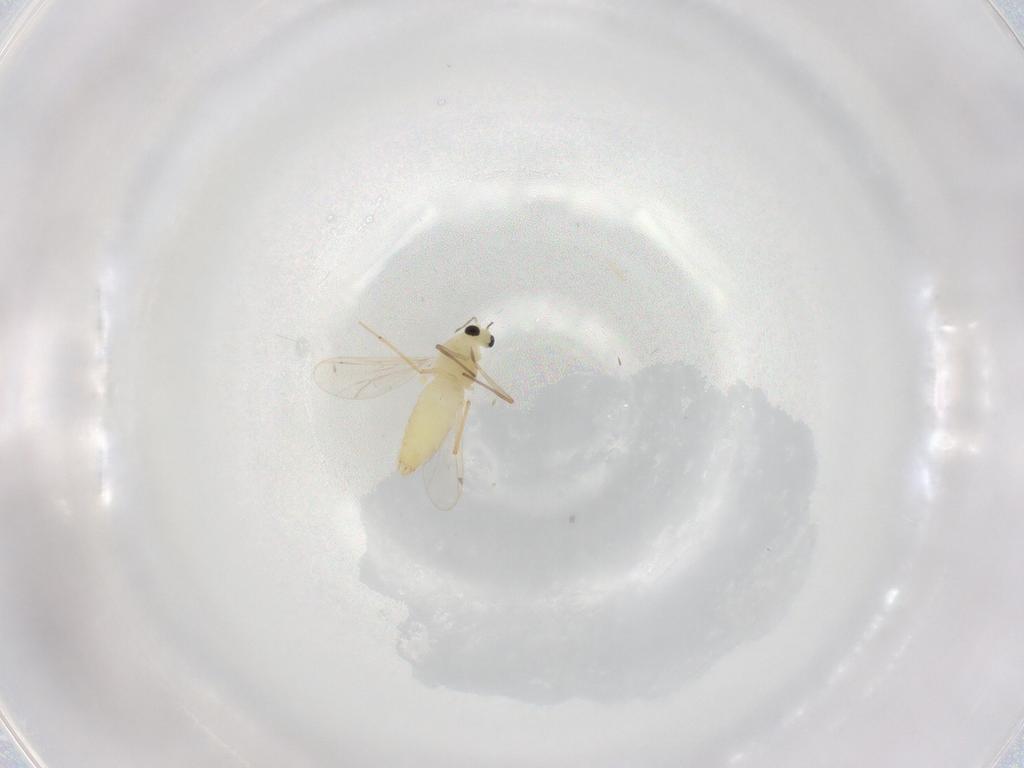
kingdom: Animalia
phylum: Arthropoda
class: Insecta
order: Diptera
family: Chironomidae
